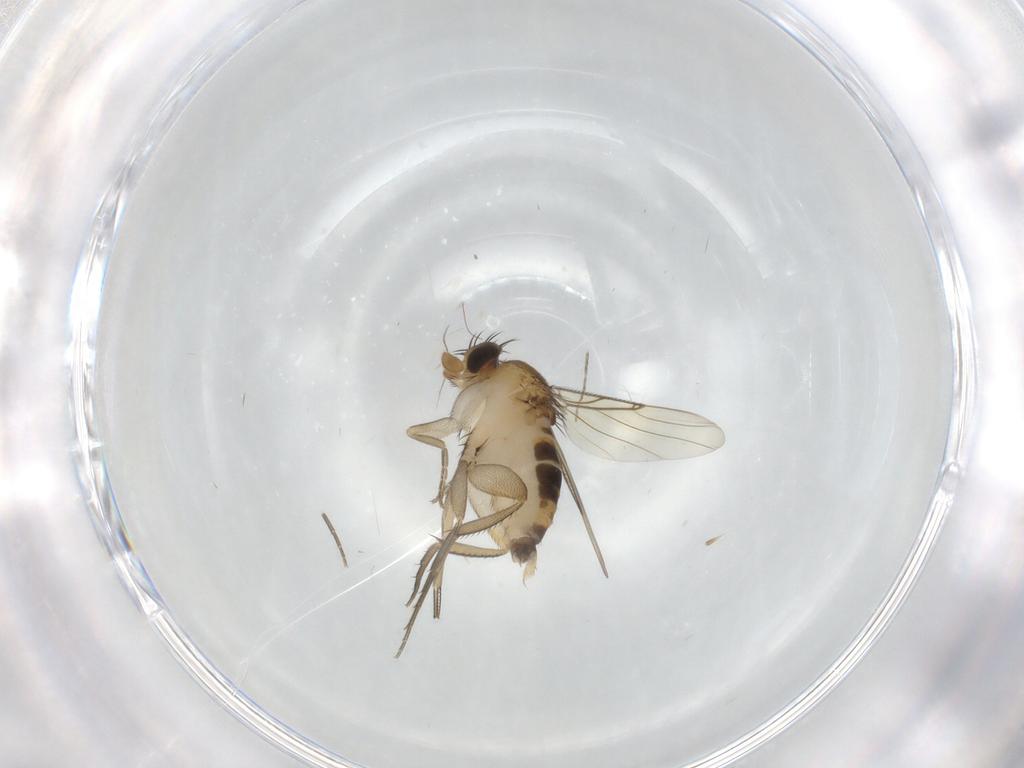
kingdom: Animalia
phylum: Arthropoda
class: Insecta
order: Diptera
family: Phoridae
